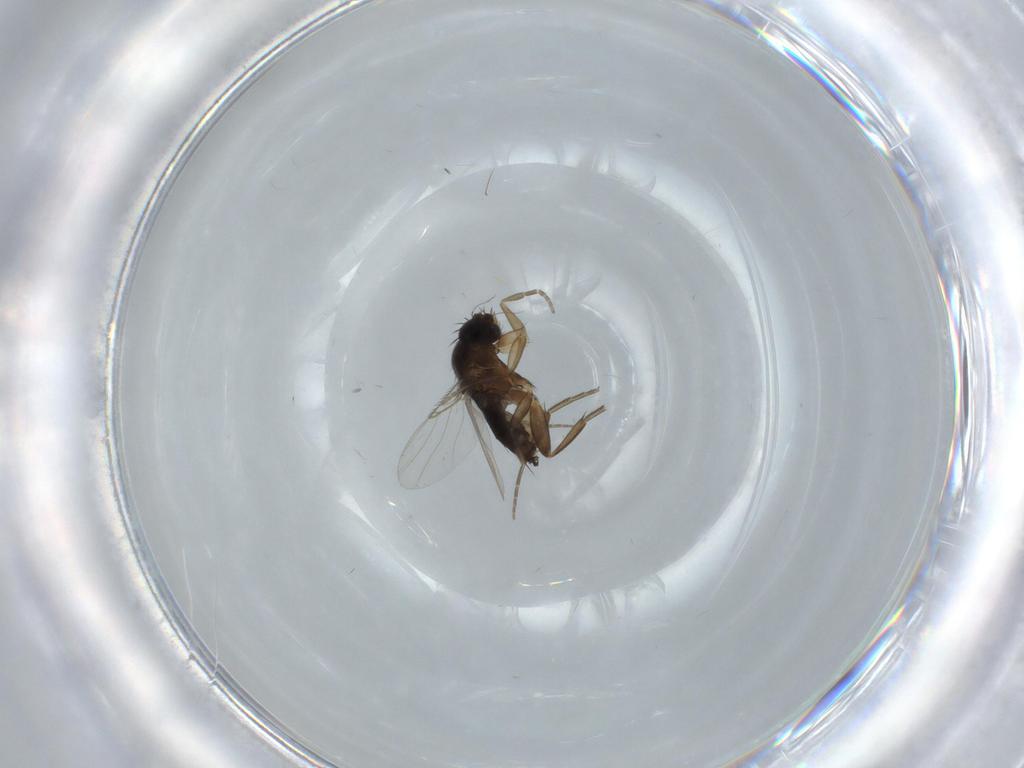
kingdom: Animalia
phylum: Arthropoda
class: Insecta
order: Diptera
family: Phoridae
